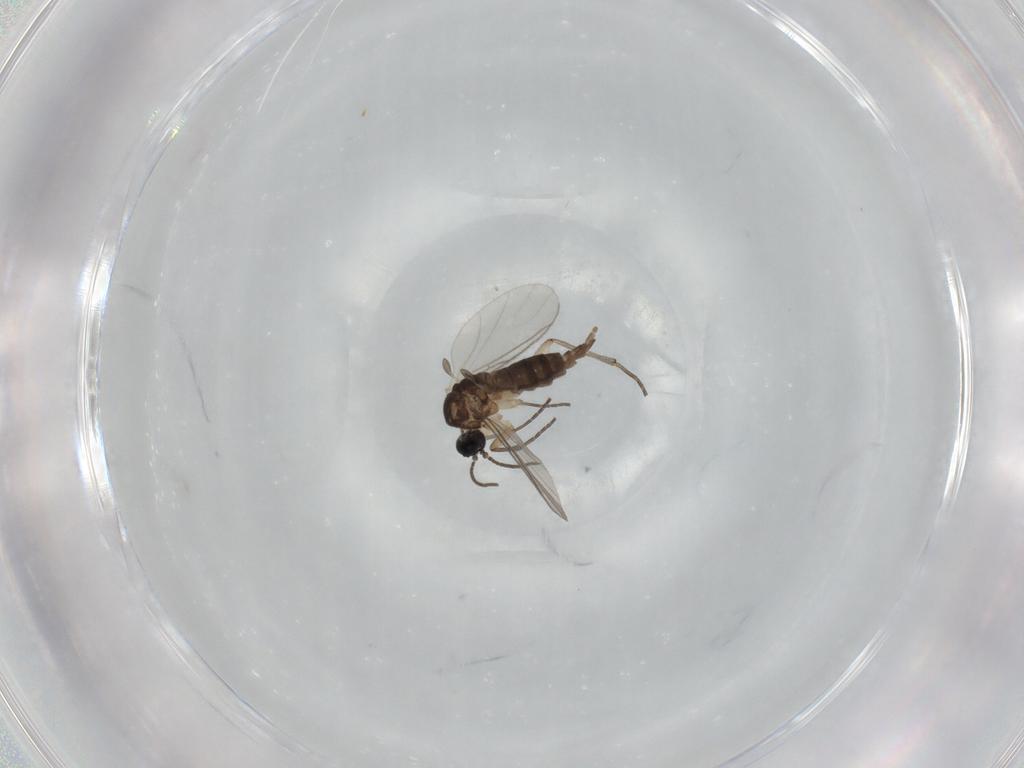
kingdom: Animalia
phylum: Arthropoda
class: Insecta
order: Diptera
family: Sciaridae
